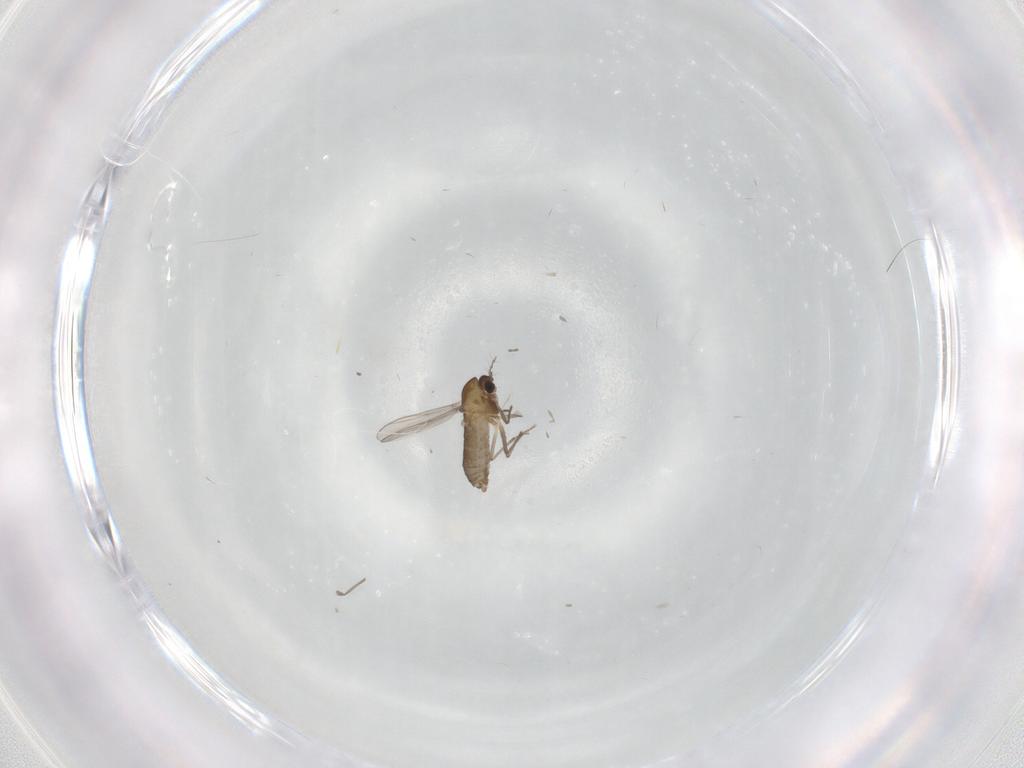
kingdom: Animalia
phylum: Arthropoda
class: Insecta
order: Diptera
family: Chironomidae
